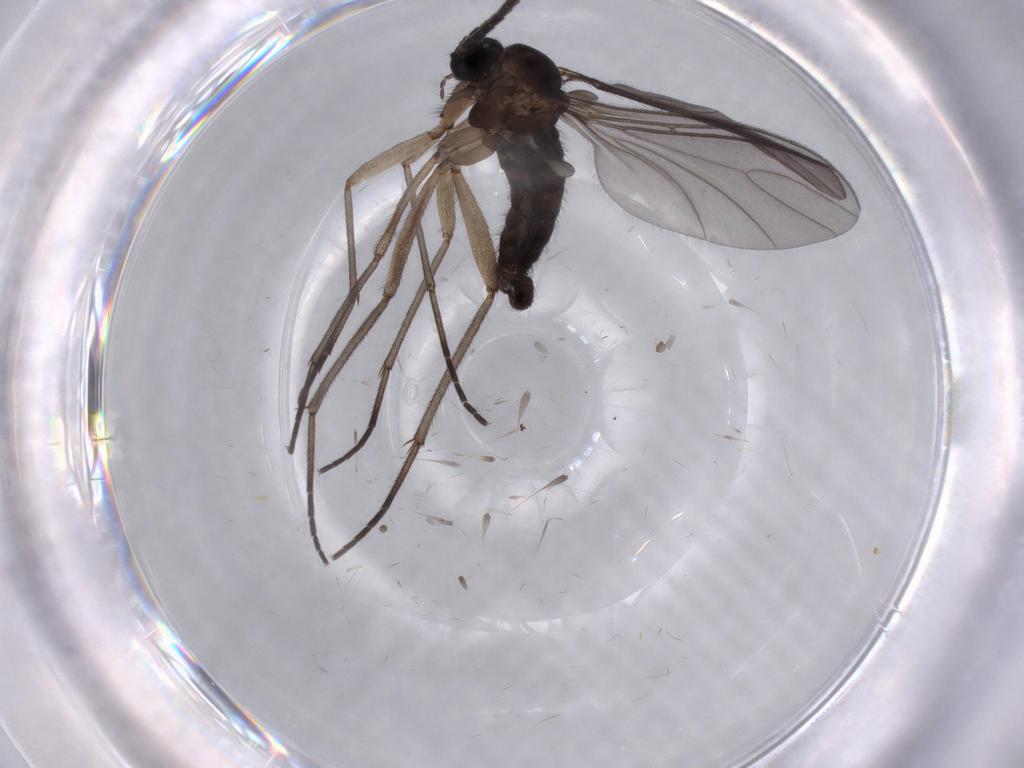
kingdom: Animalia
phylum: Arthropoda
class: Insecta
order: Diptera
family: Sciaridae
